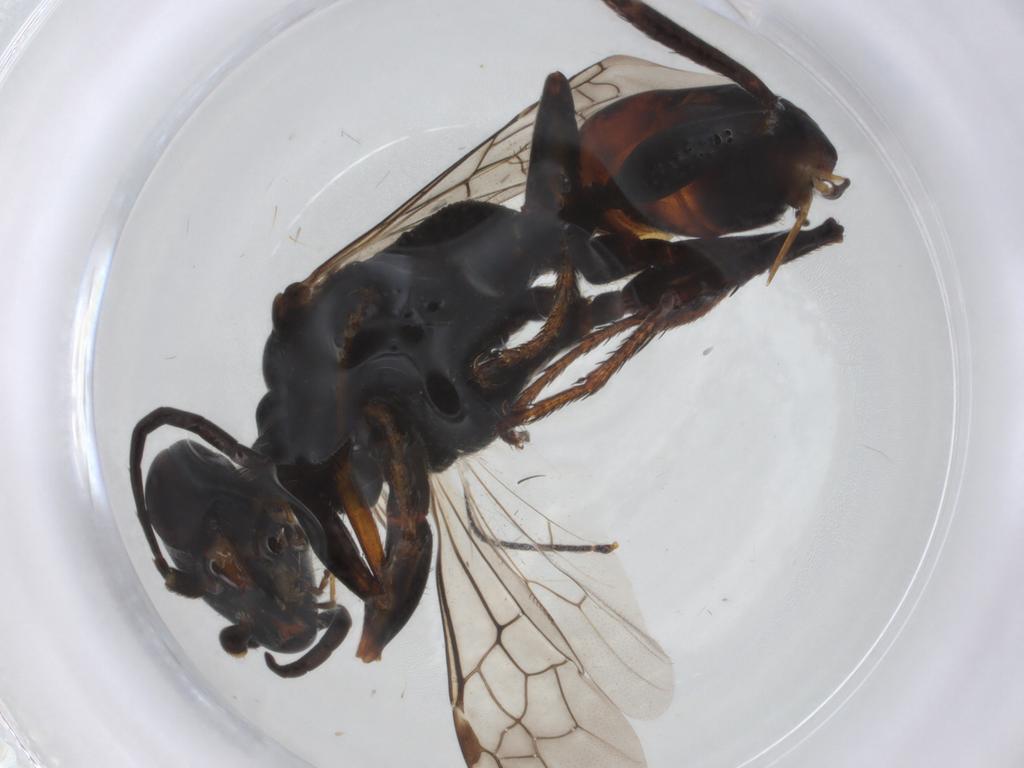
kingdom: Animalia
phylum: Arthropoda
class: Insecta
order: Hymenoptera
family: Braconidae
